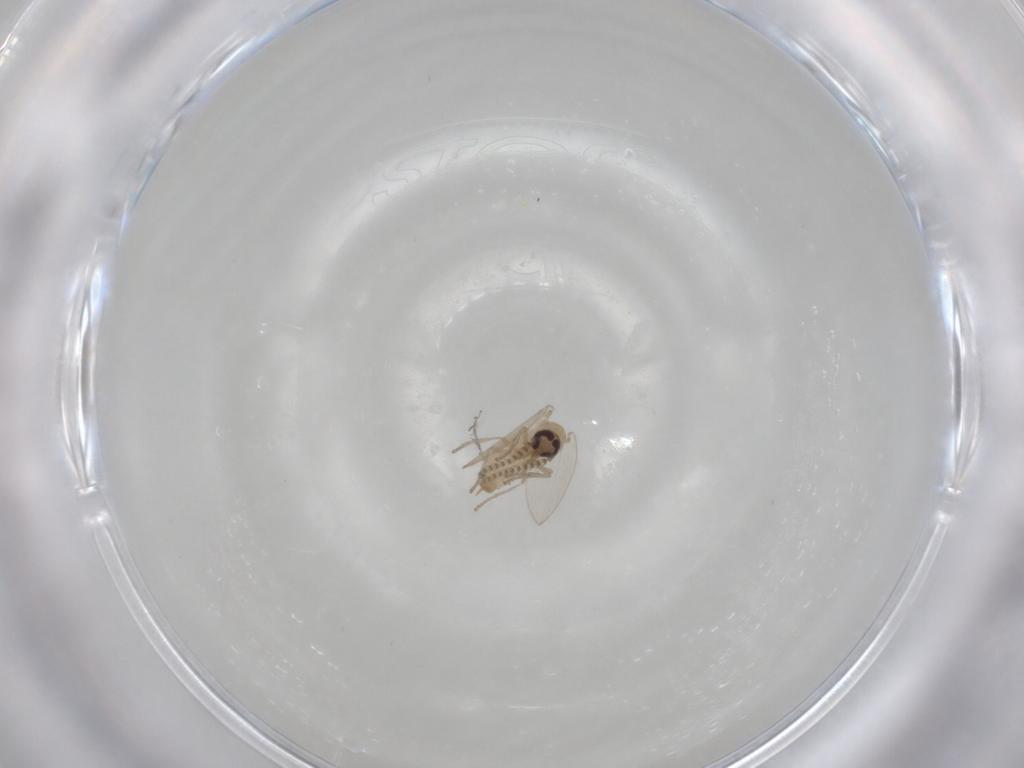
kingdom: Animalia
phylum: Arthropoda
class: Insecta
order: Diptera
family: Psychodidae
